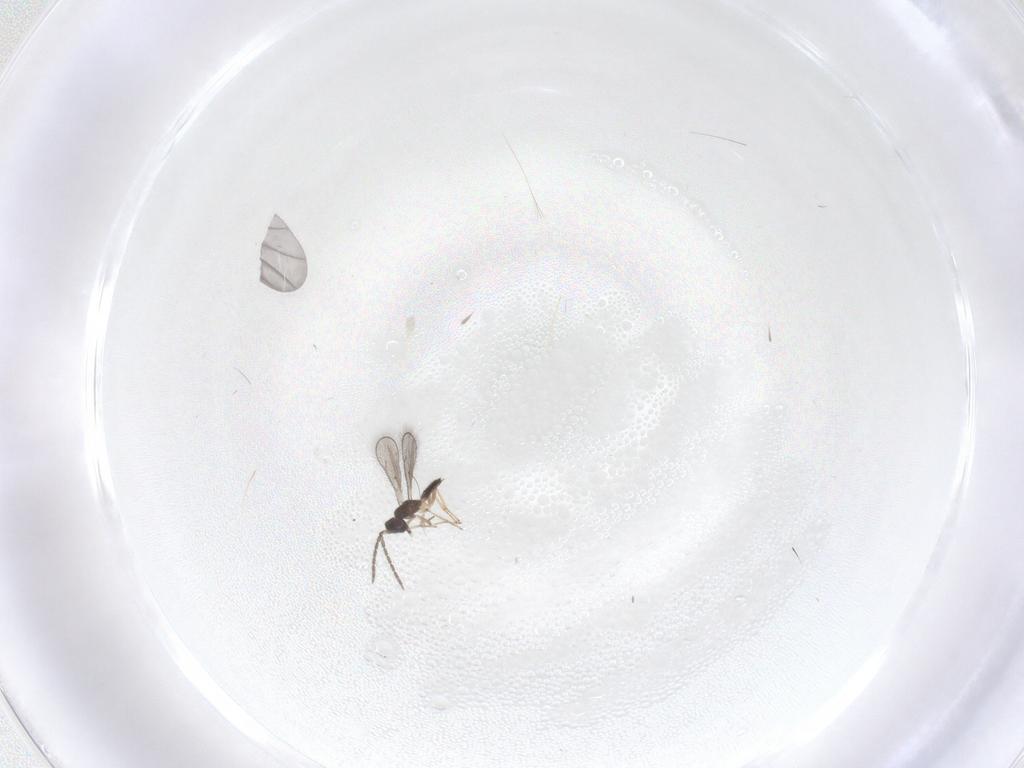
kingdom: Animalia
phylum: Arthropoda
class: Insecta
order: Hymenoptera
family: Eulophidae
